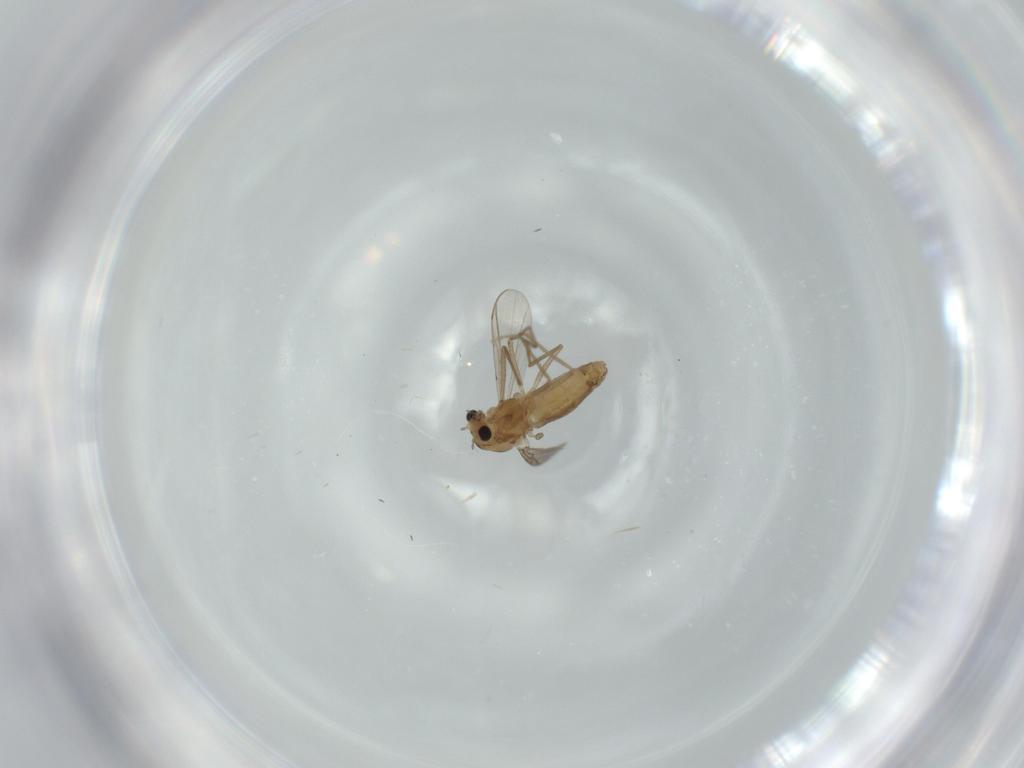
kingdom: Animalia
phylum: Arthropoda
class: Insecta
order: Diptera
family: Chironomidae
